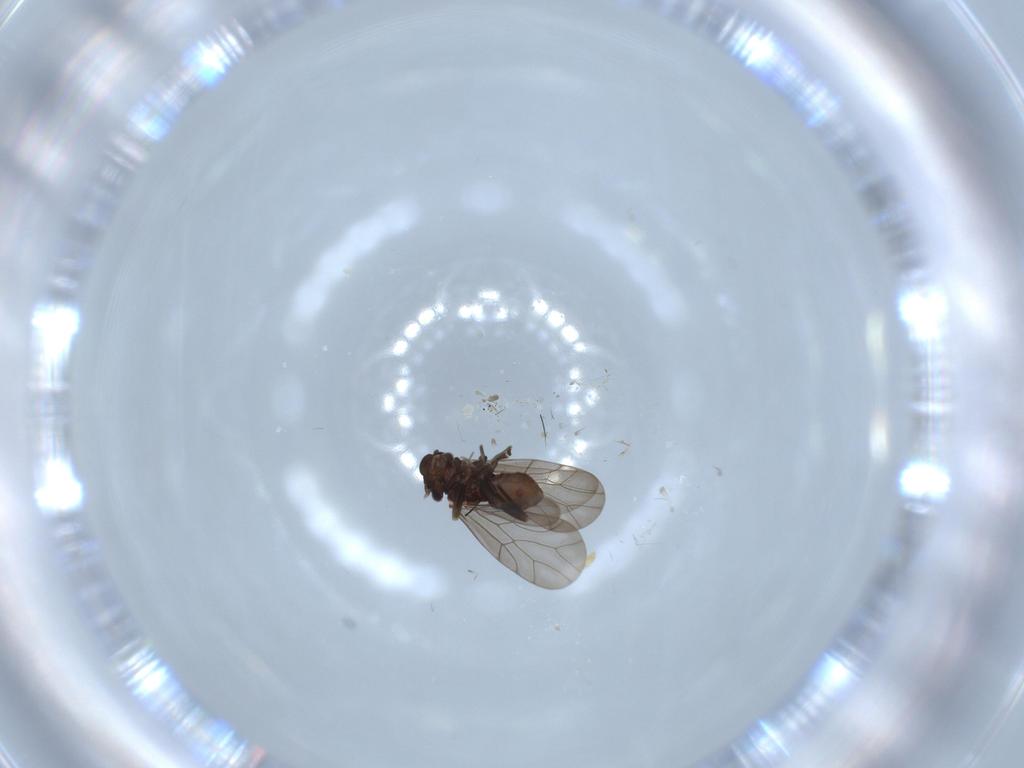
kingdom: Animalia
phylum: Arthropoda
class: Insecta
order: Psocodea
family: Lepidopsocidae
